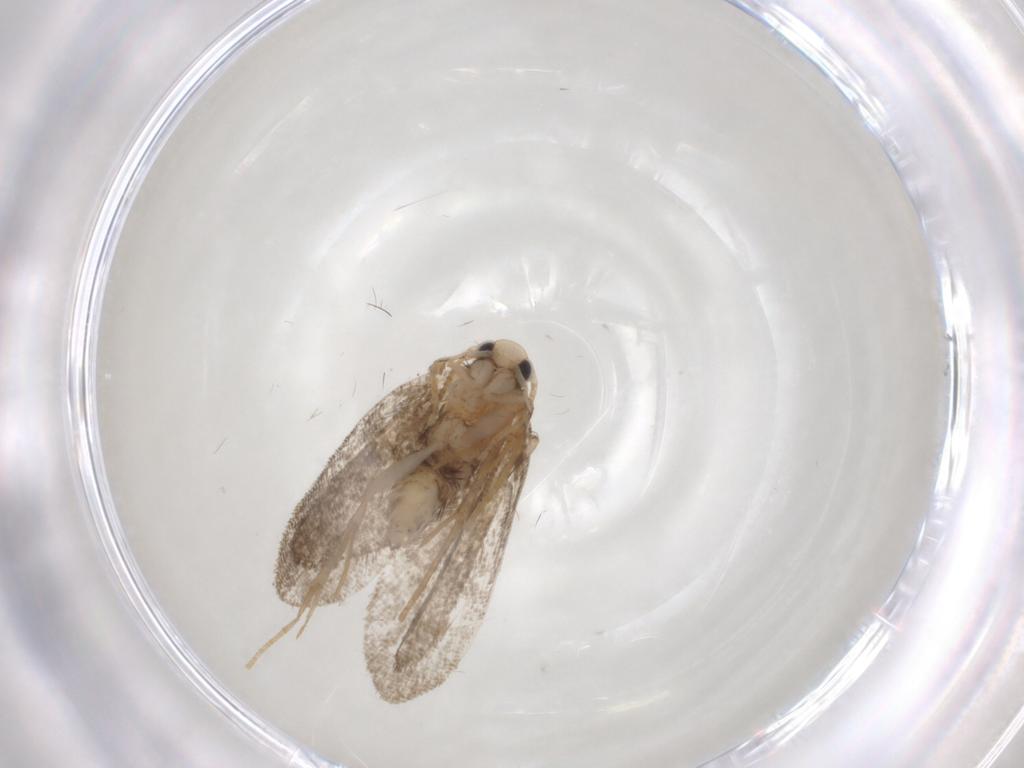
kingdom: Animalia
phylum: Arthropoda
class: Insecta
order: Lepidoptera
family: Psychidae
